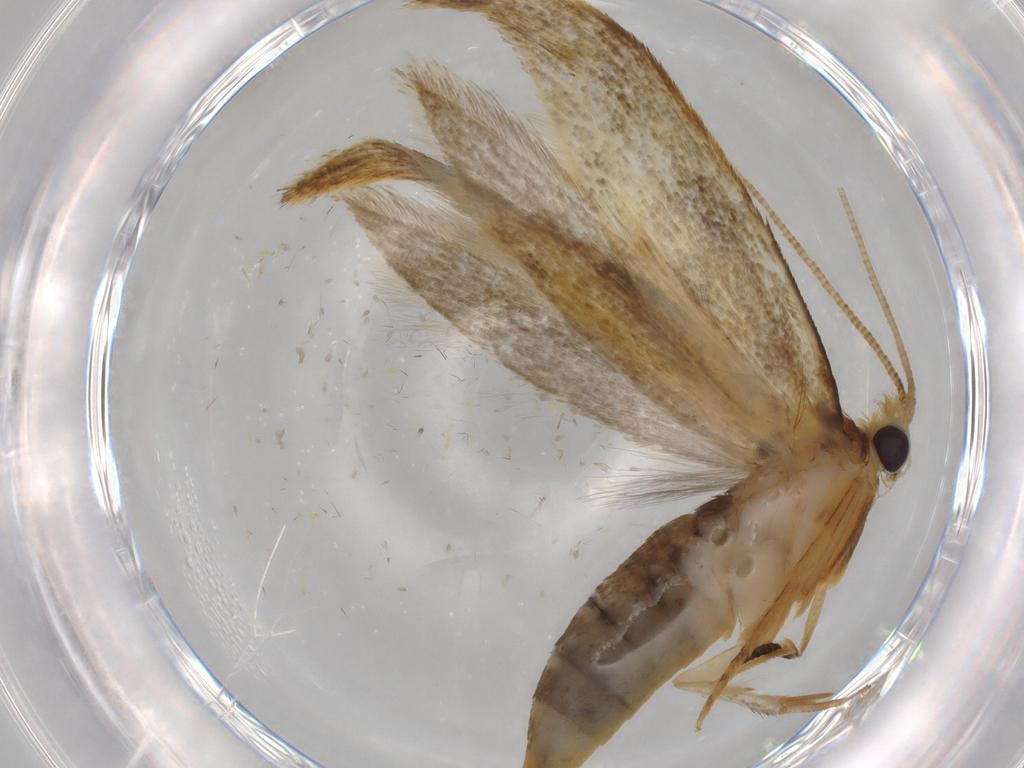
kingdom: Animalia
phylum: Arthropoda
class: Insecta
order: Lepidoptera
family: Tineidae
